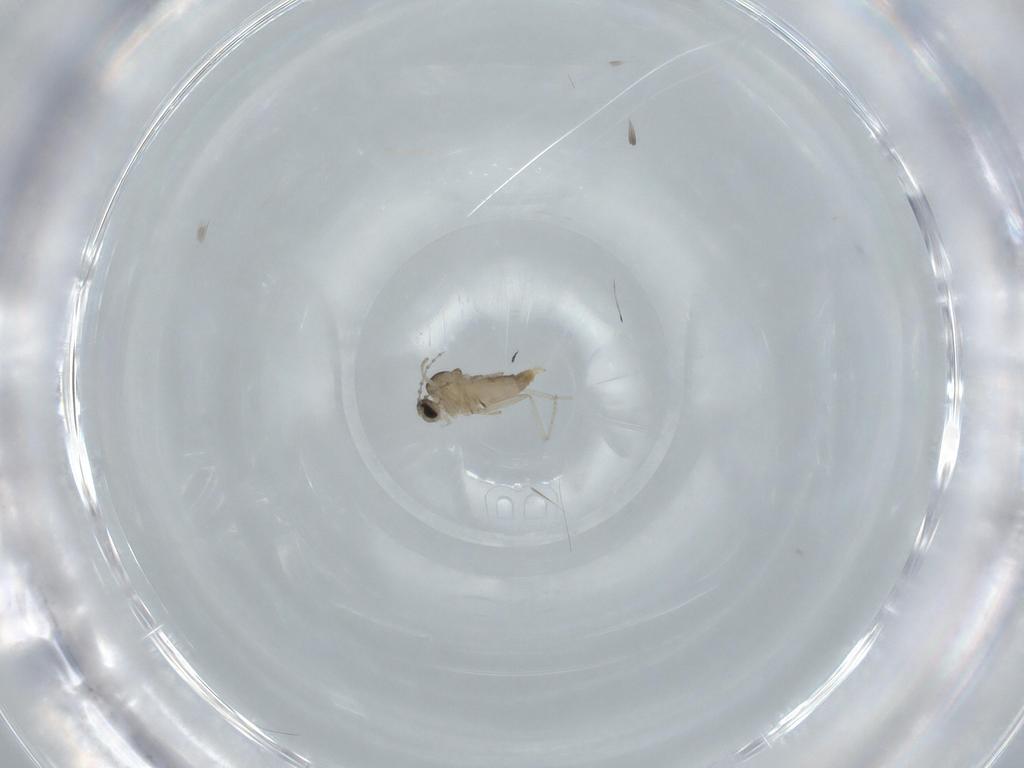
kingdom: Animalia
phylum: Arthropoda
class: Insecta
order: Diptera
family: Cecidomyiidae
